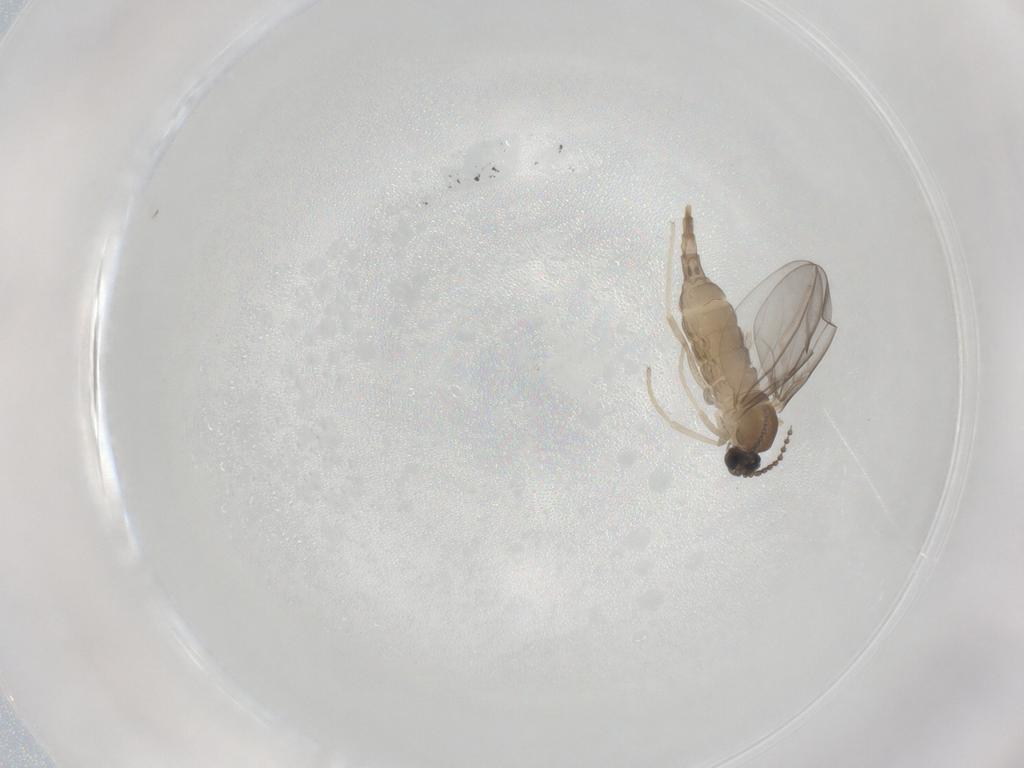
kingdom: Animalia
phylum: Arthropoda
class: Insecta
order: Diptera
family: Cecidomyiidae
